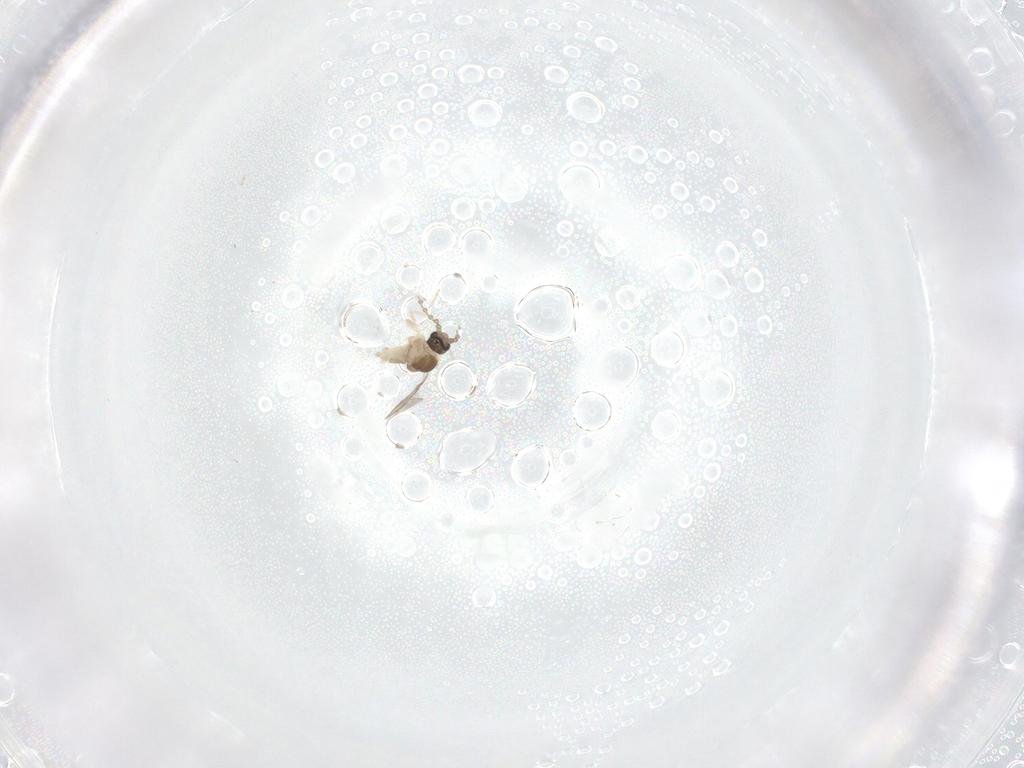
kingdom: Animalia
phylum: Arthropoda
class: Insecta
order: Diptera
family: Cecidomyiidae
